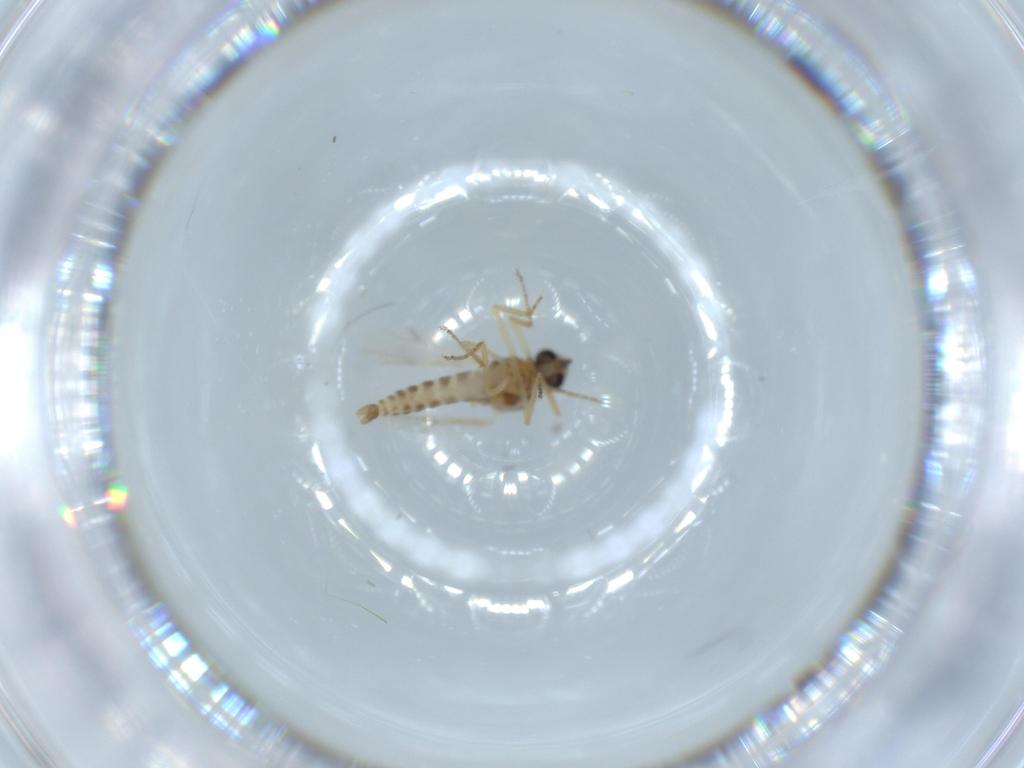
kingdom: Animalia
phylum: Arthropoda
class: Insecta
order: Diptera
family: Ceratopogonidae
